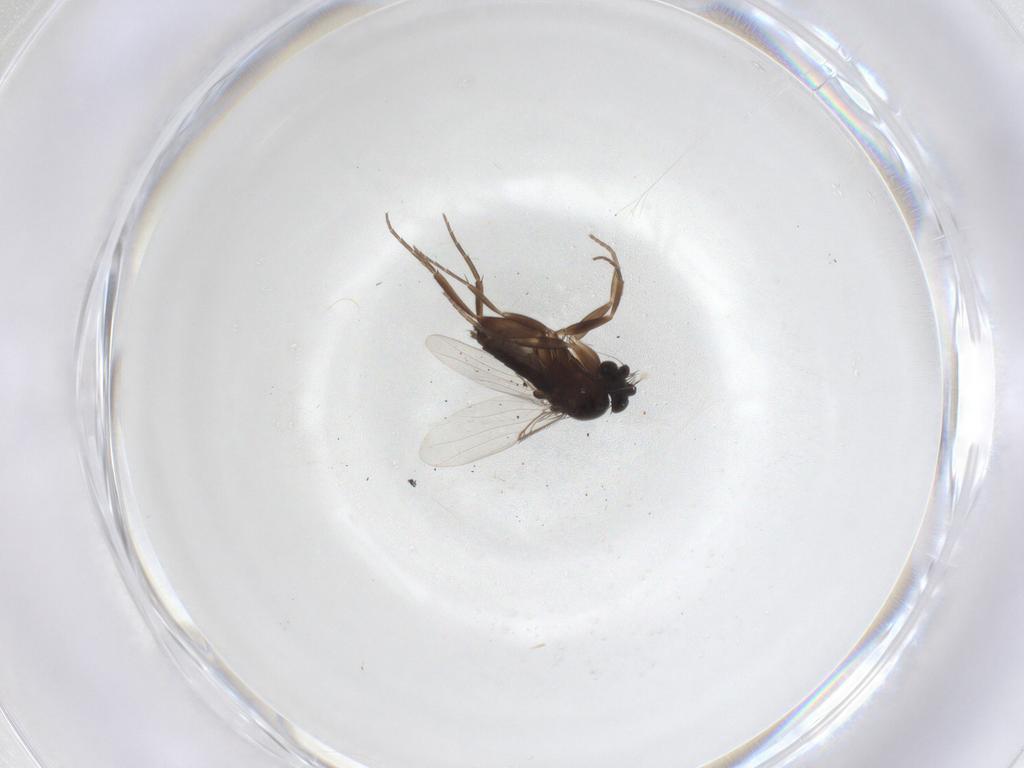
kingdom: Animalia
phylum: Arthropoda
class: Insecta
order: Diptera
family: Phoridae
